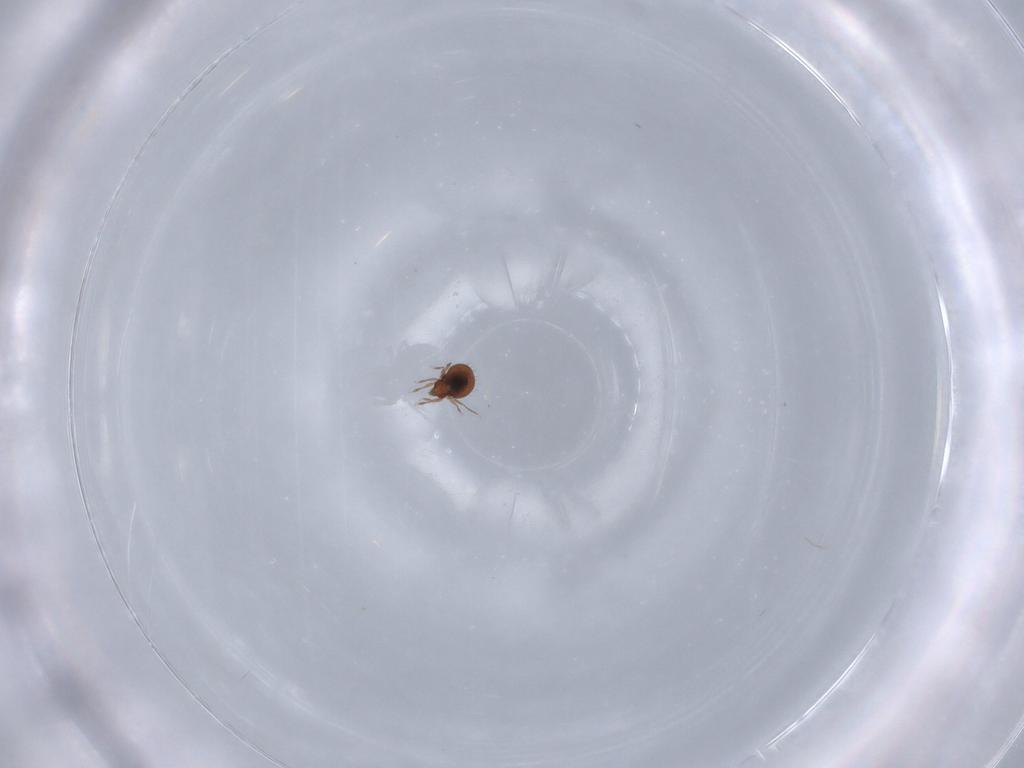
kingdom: Animalia
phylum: Arthropoda
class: Arachnida
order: Sarcoptiformes
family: Oribatulidae
